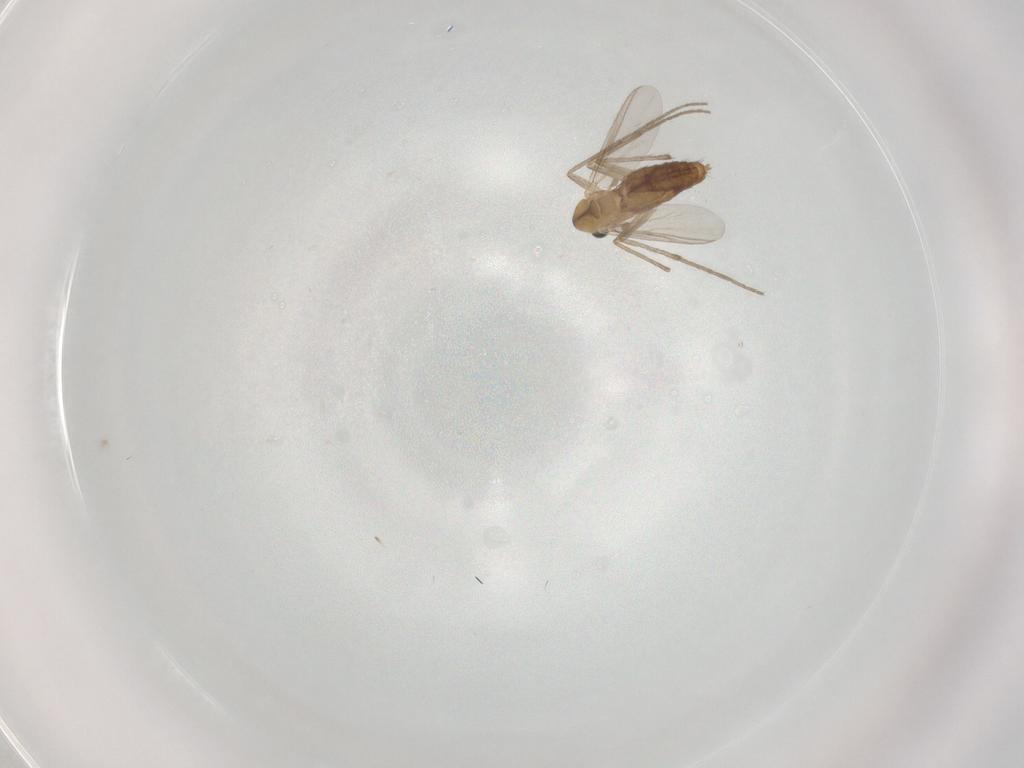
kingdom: Animalia
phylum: Arthropoda
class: Insecta
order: Diptera
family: Chironomidae
